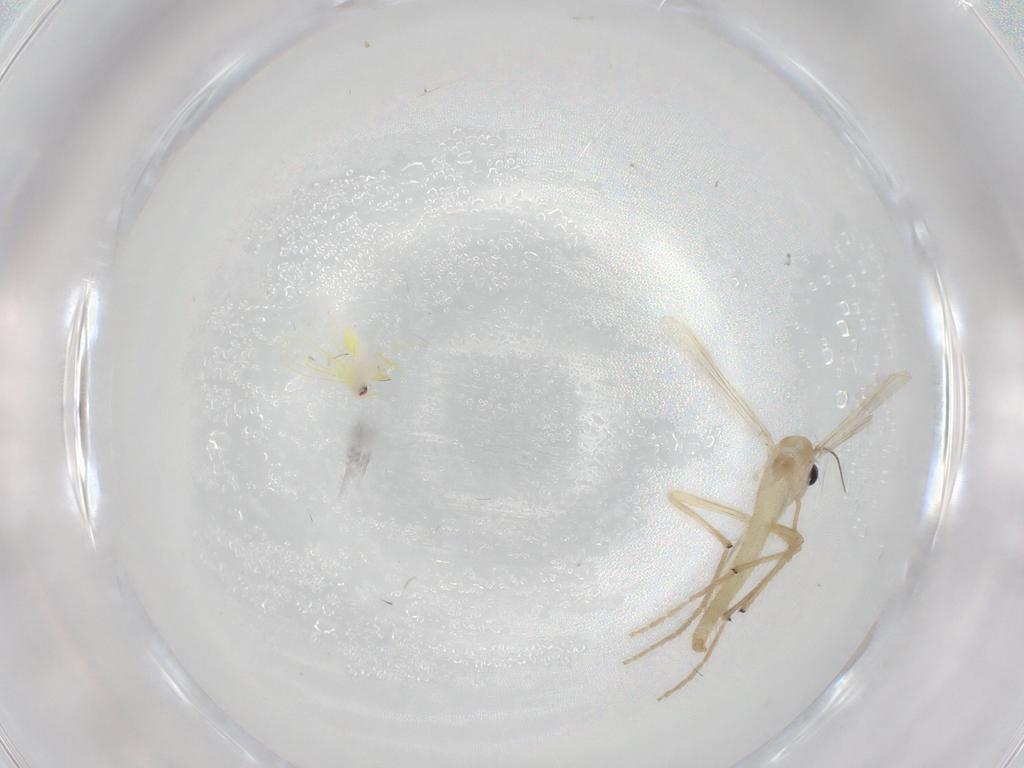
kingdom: Animalia
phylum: Arthropoda
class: Insecta
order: Diptera
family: Chironomidae
